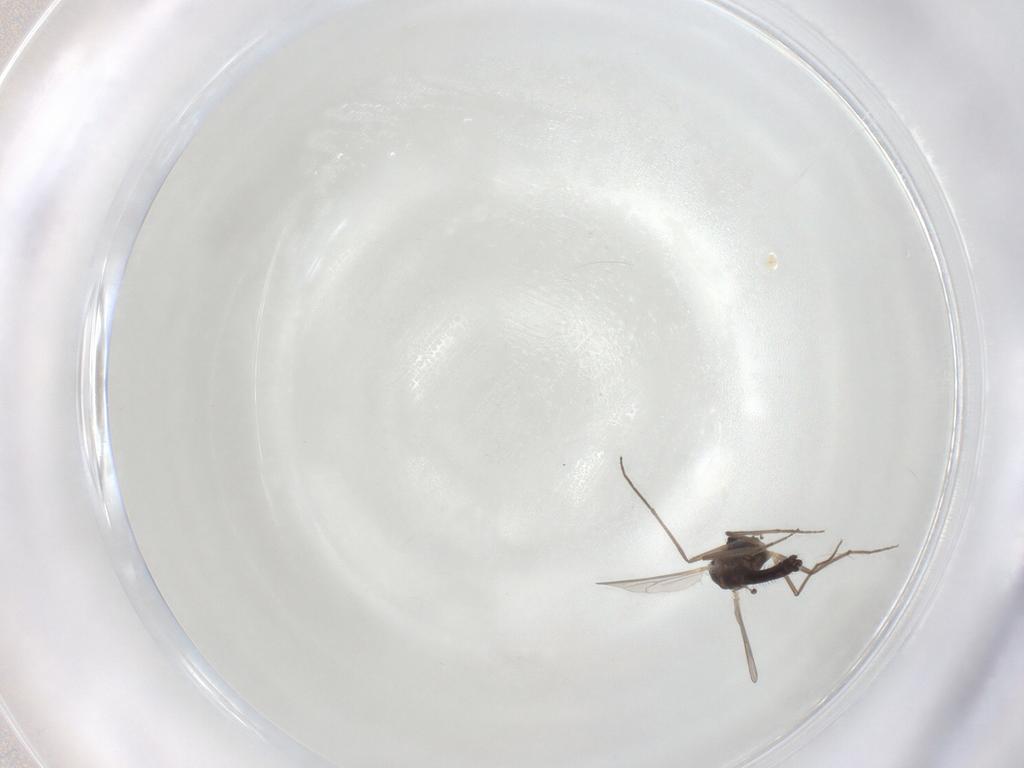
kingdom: Animalia
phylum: Arthropoda
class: Insecta
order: Diptera
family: Chironomidae
